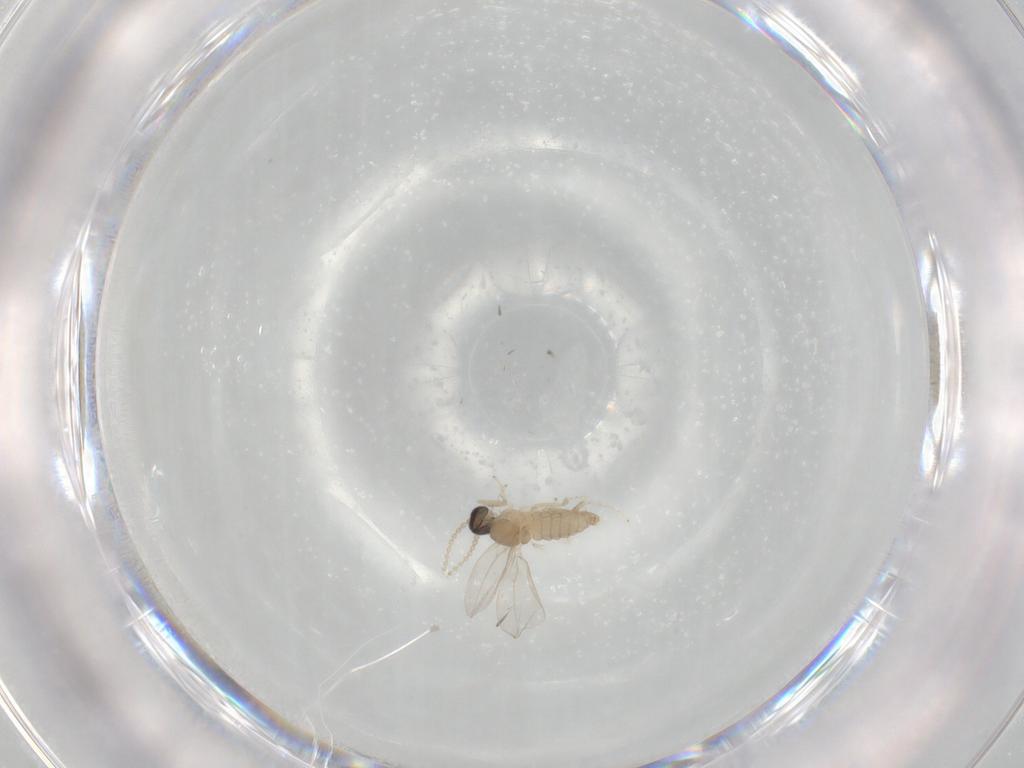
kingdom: Animalia
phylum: Arthropoda
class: Insecta
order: Diptera
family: Cecidomyiidae
